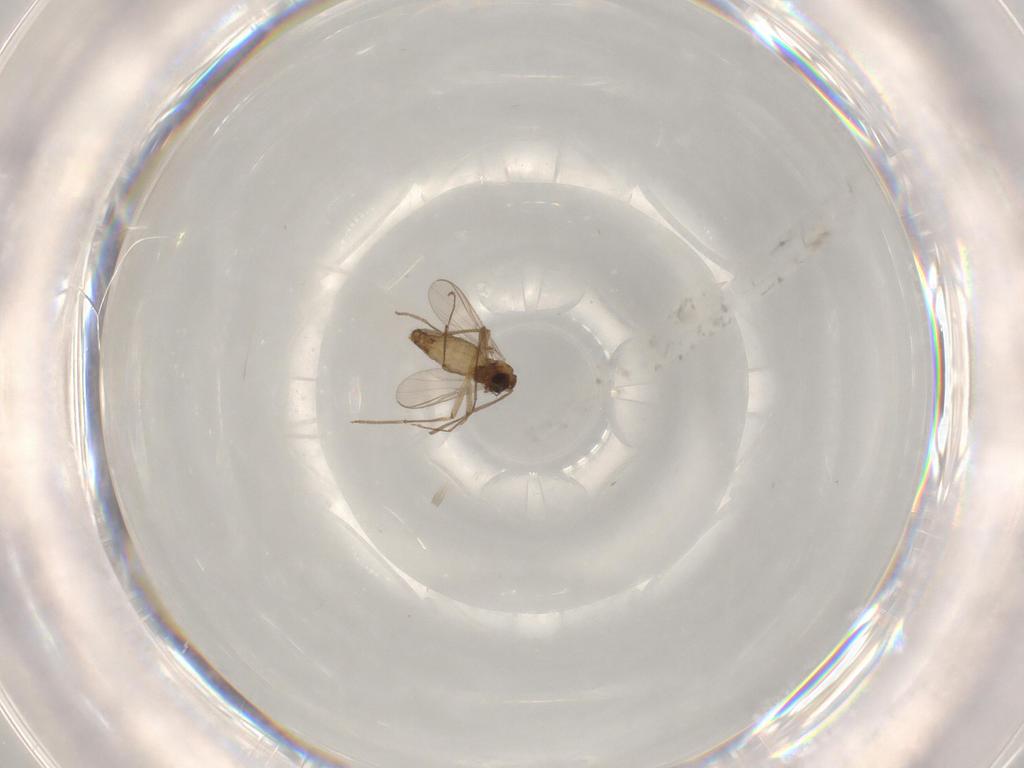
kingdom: Animalia
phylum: Arthropoda
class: Insecta
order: Diptera
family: Chironomidae
